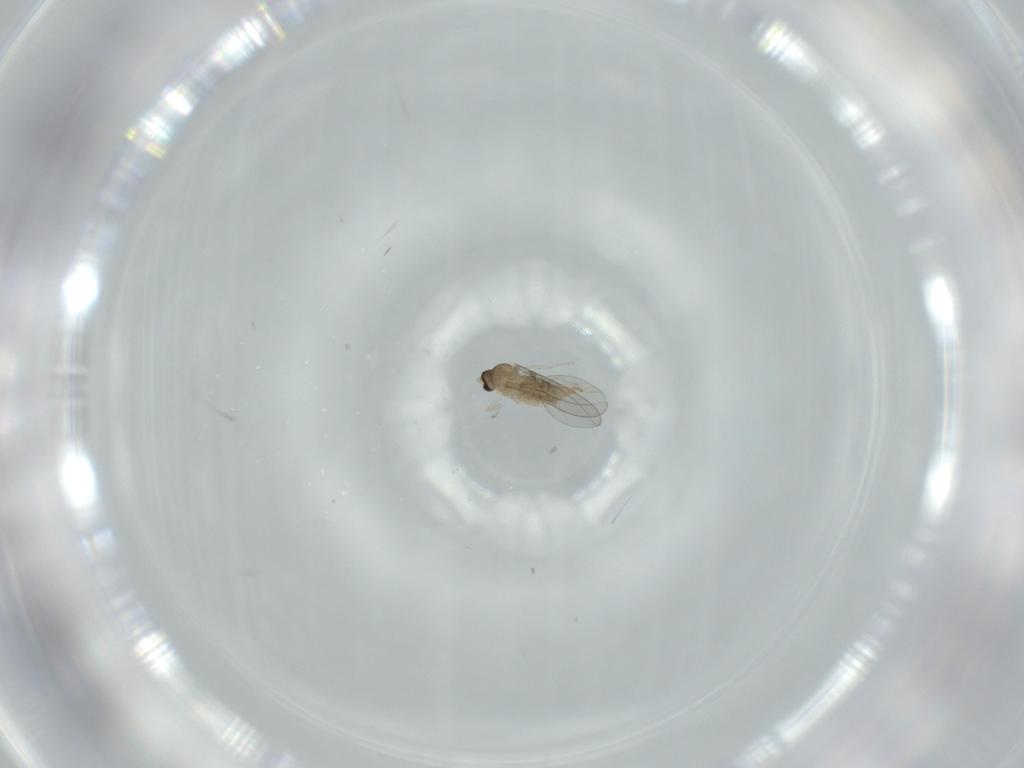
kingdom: Animalia
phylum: Arthropoda
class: Insecta
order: Diptera
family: Cecidomyiidae
